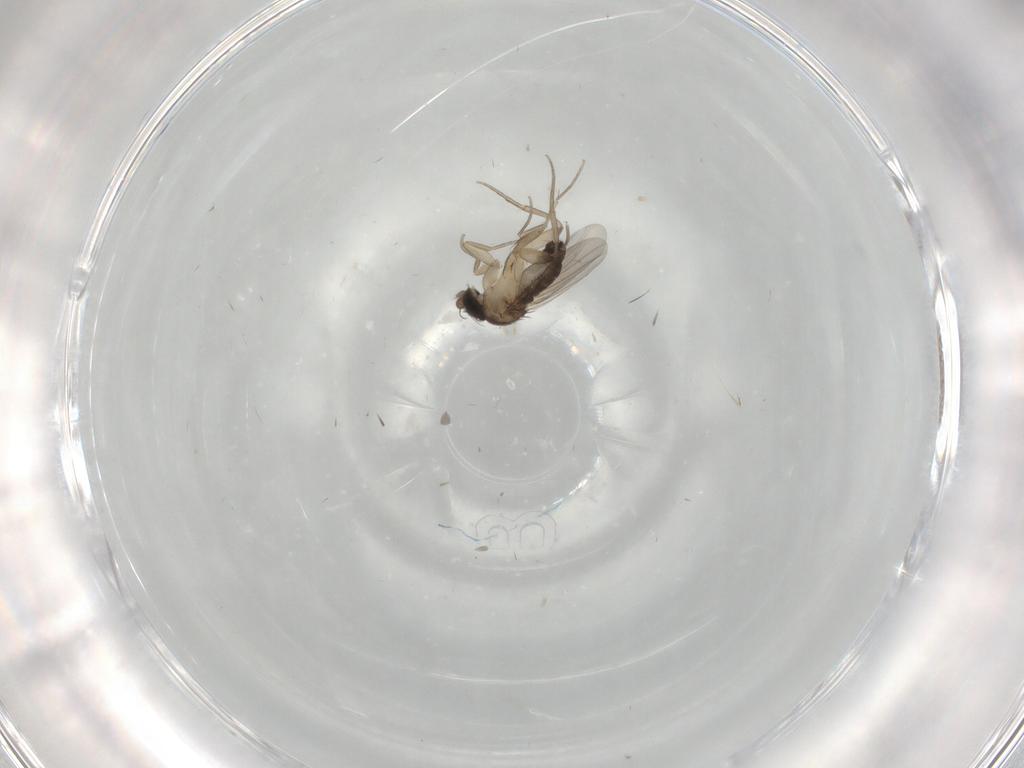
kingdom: Animalia
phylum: Arthropoda
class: Insecta
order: Diptera
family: Phoridae
